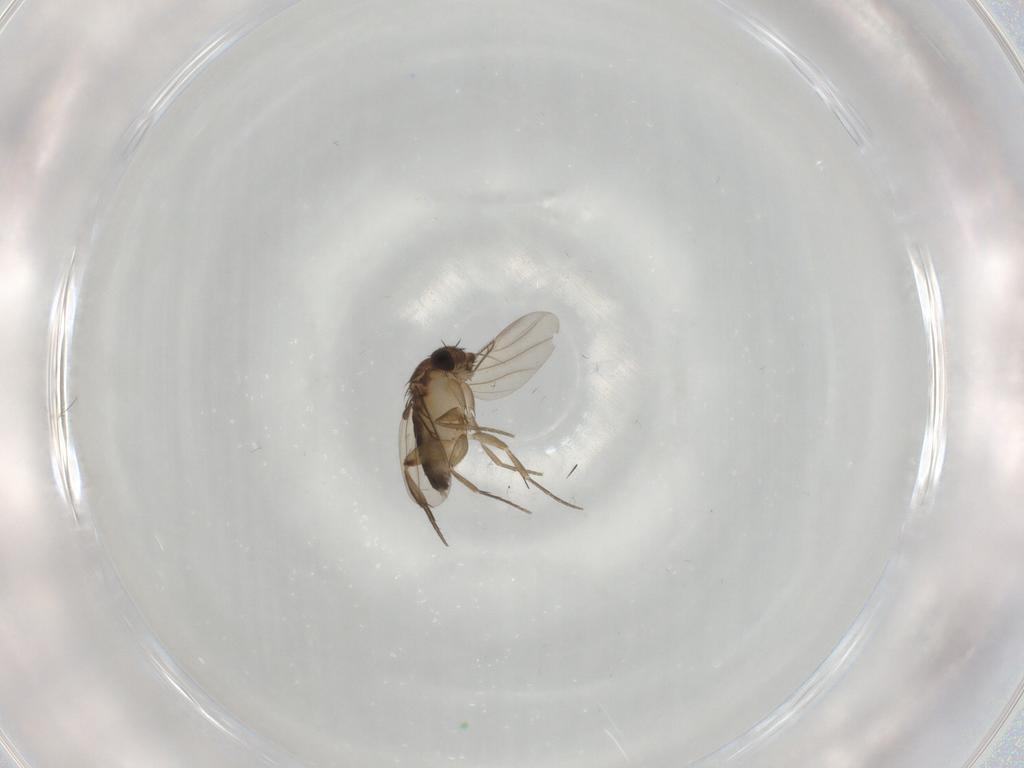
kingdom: Animalia
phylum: Arthropoda
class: Insecta
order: Diptera
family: Phoridae
